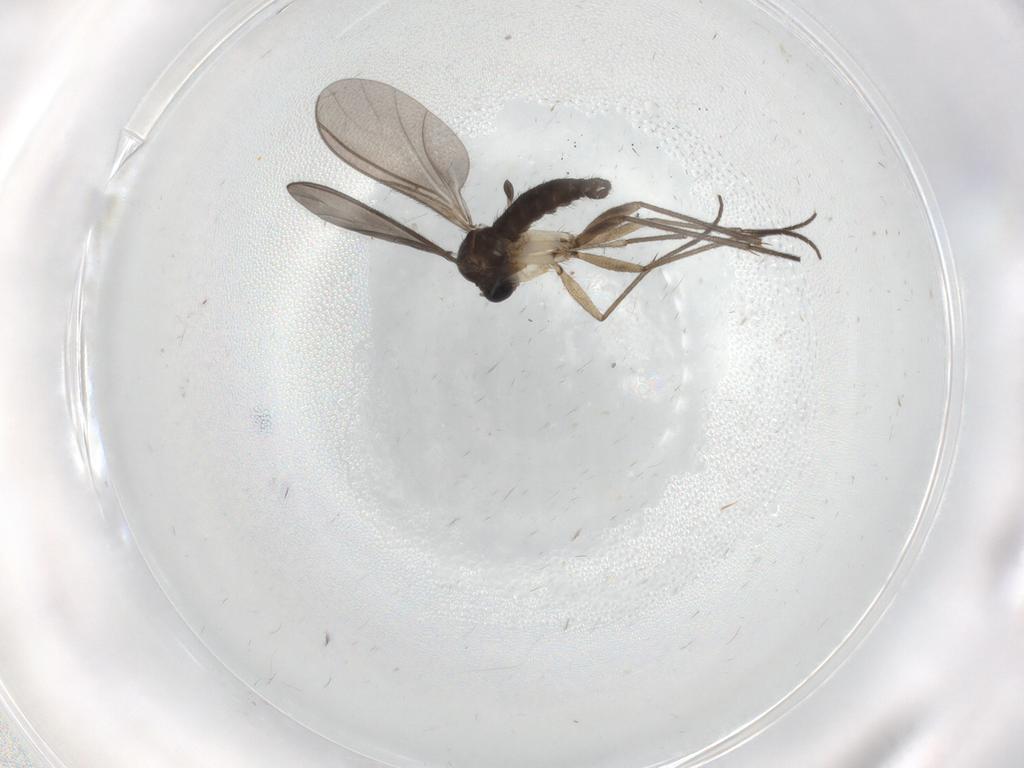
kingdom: Animalia
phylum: Arthropoda
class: Insecta
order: Diptera
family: Sciaridae
